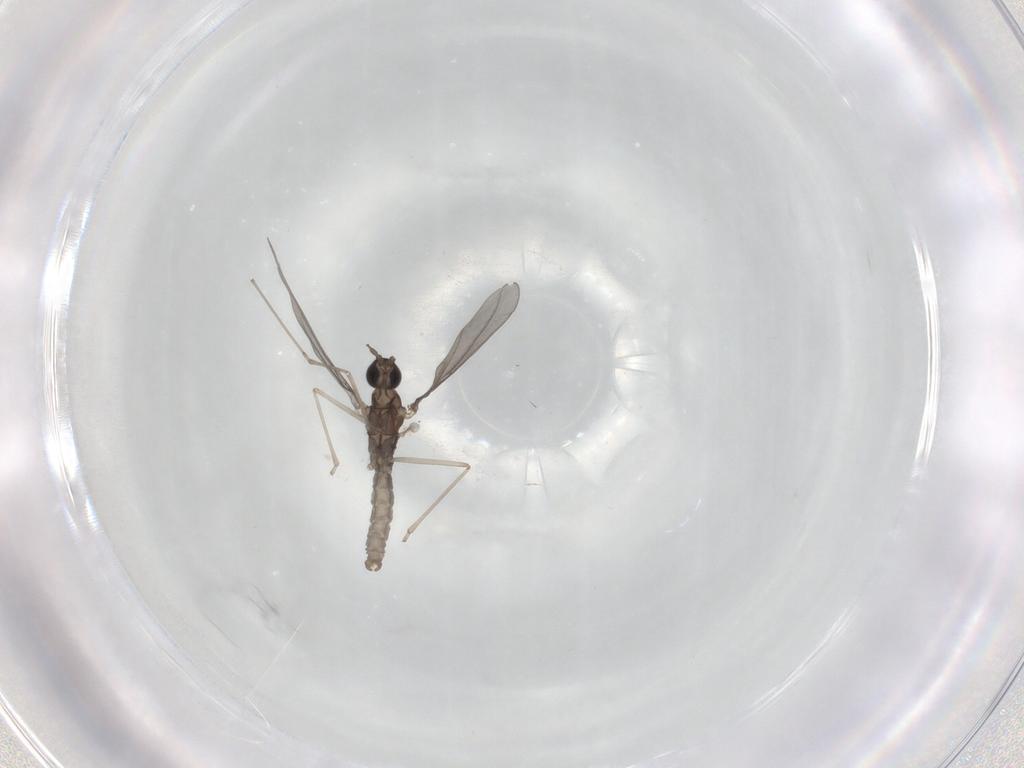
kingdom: Animalia
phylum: Arthropoda
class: Insecta
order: Diptera
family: Cecidomyiidae
